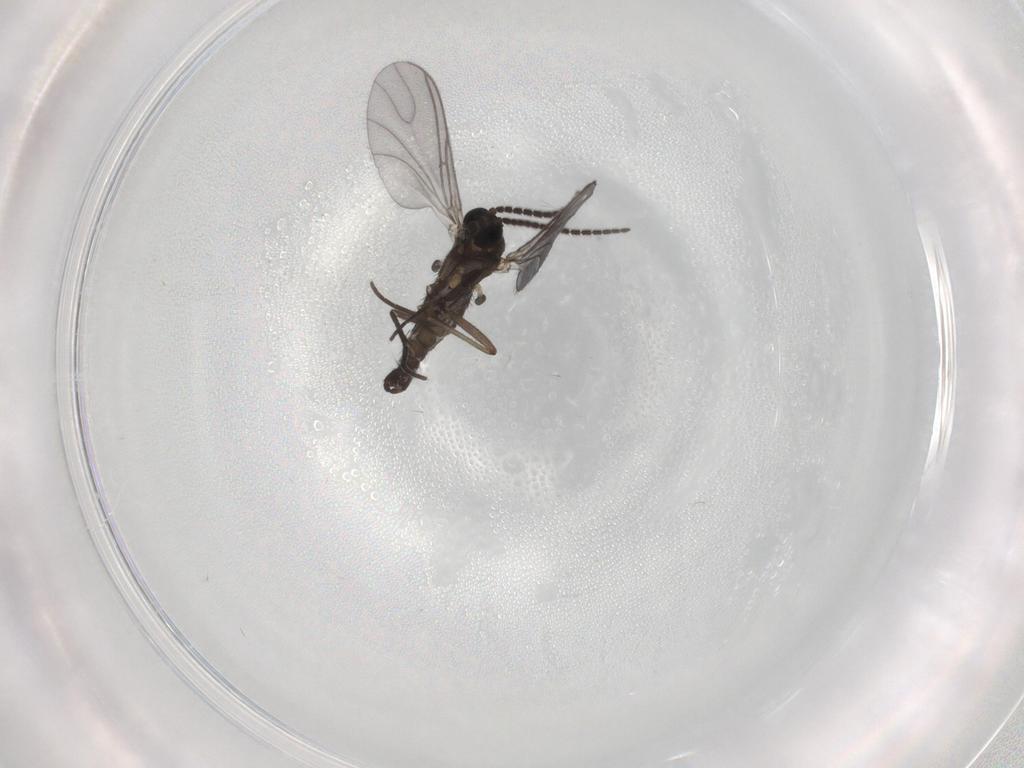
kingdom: Animalia
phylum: Arthropoda
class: Insecta
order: Diptera
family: Sciaridae
